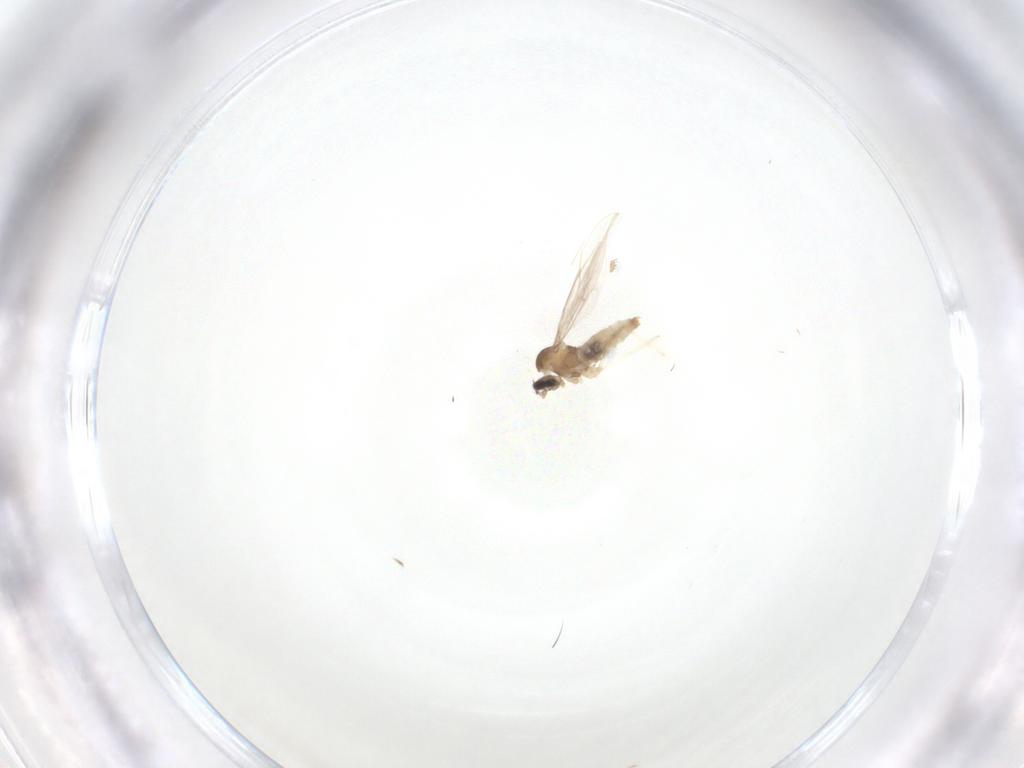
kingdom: Animalia
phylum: Arthropoda
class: Insecta
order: Diptera
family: Cecidomyiidae
